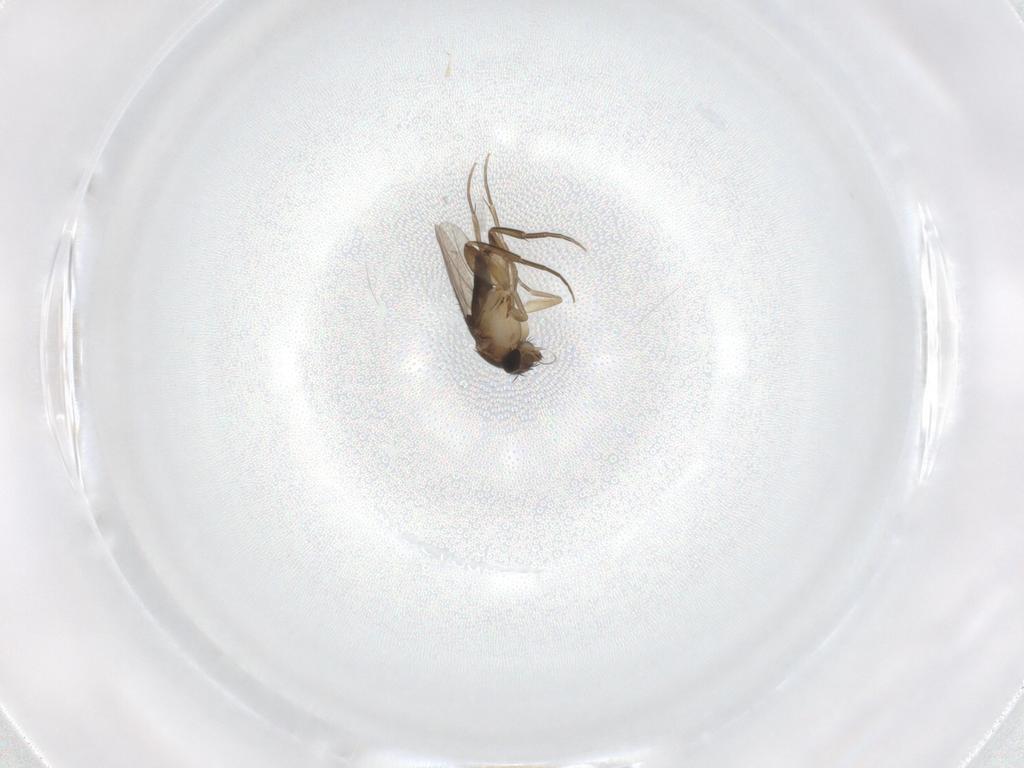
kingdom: Animalia
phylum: Arthropoda
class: Insecta
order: Diptera
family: Phoridae
